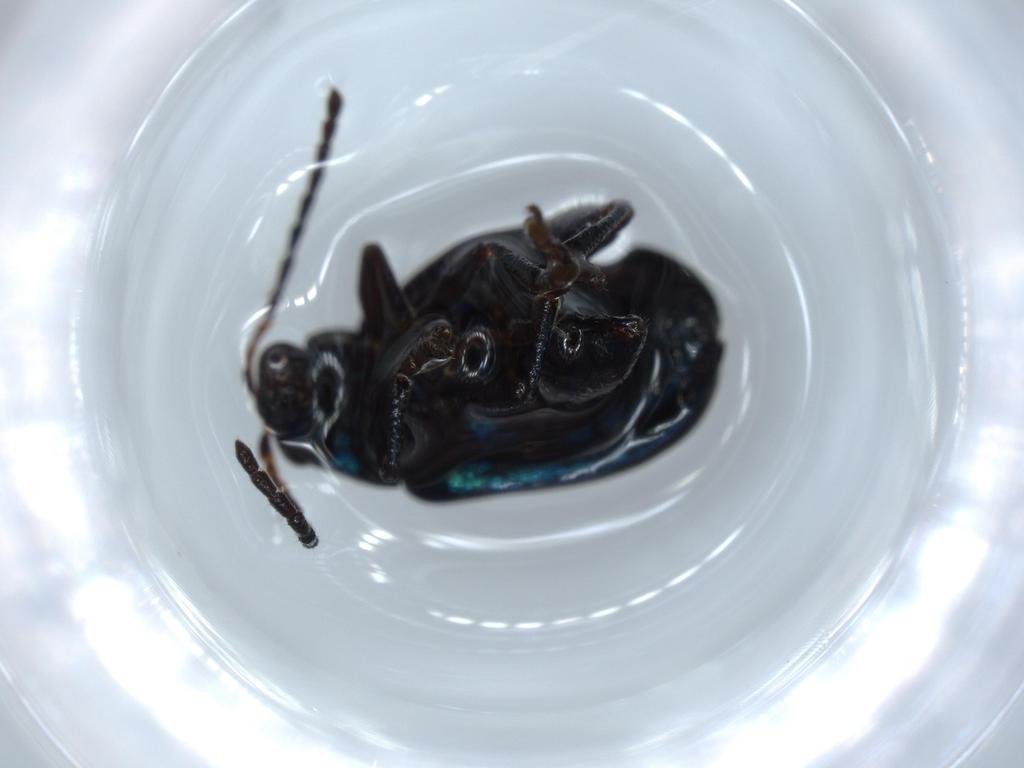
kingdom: Animalia
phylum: Arthropoda
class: Insecta
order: Coleoptera
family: Chrysomelidae
